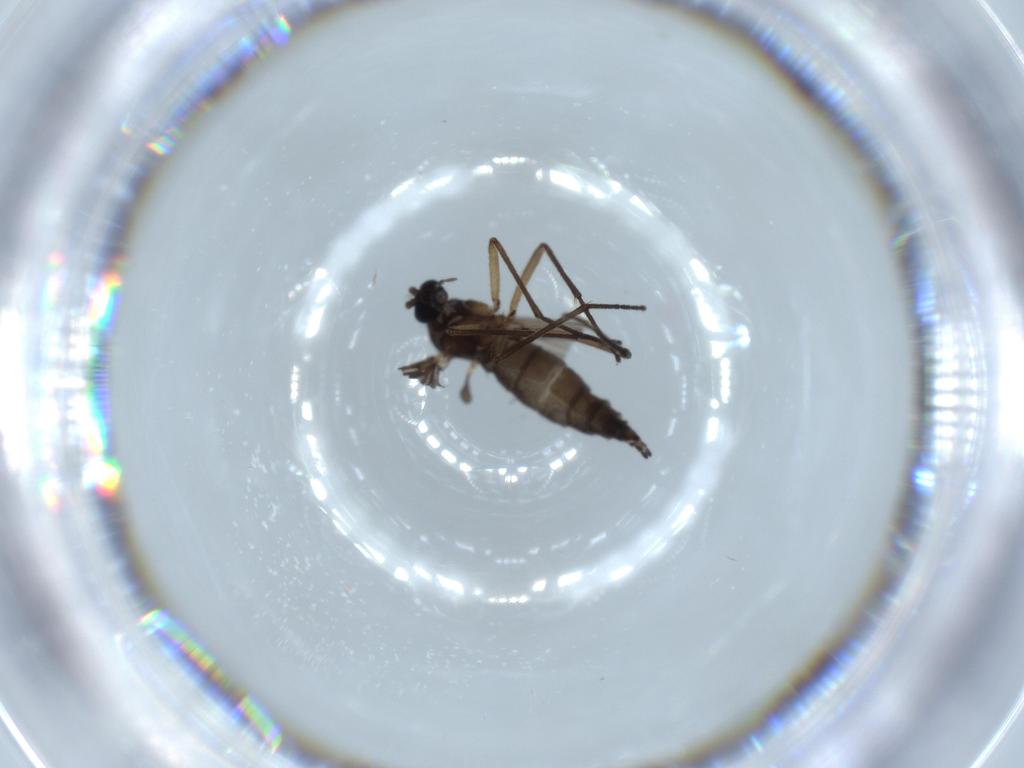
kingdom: Animalia
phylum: Arthropoda
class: Insecta
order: Diptera
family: Sciaridae
